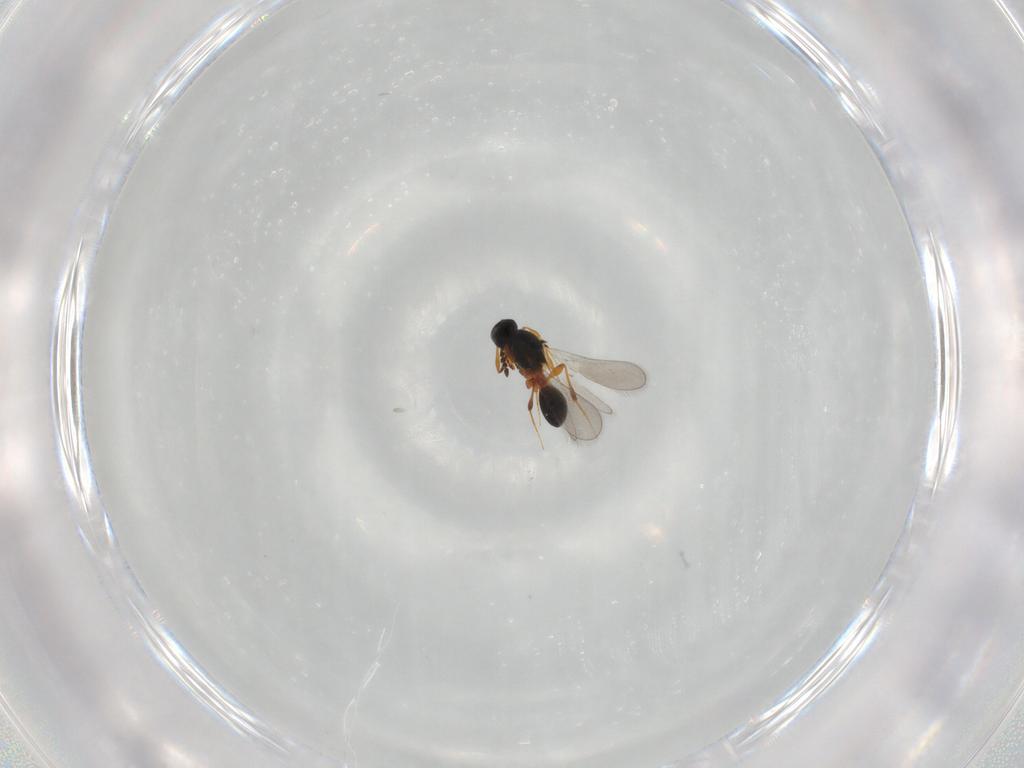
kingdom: Animalia
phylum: Arthropoda
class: Insecta
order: Hymenoptera
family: Platygastridae
